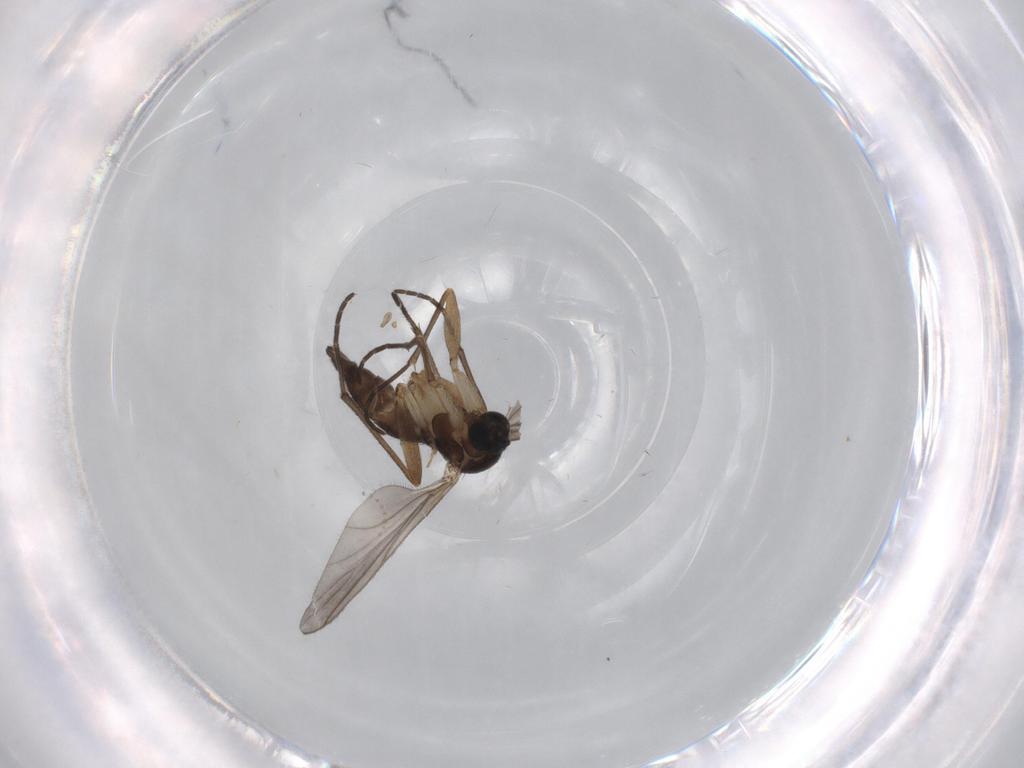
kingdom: Animalia
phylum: Arthropoda
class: Insecta
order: Diptera
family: Sciaridae
